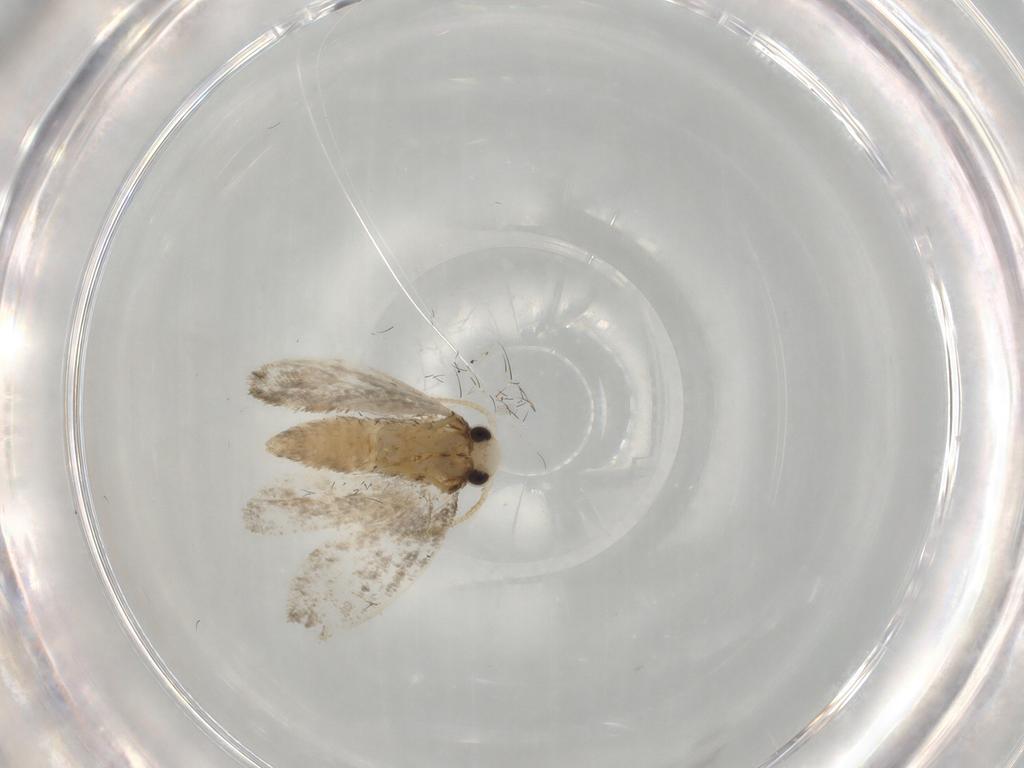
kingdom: Animalia
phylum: Arthropoda
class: Insecta
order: Lepidoptera
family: Psychidae
